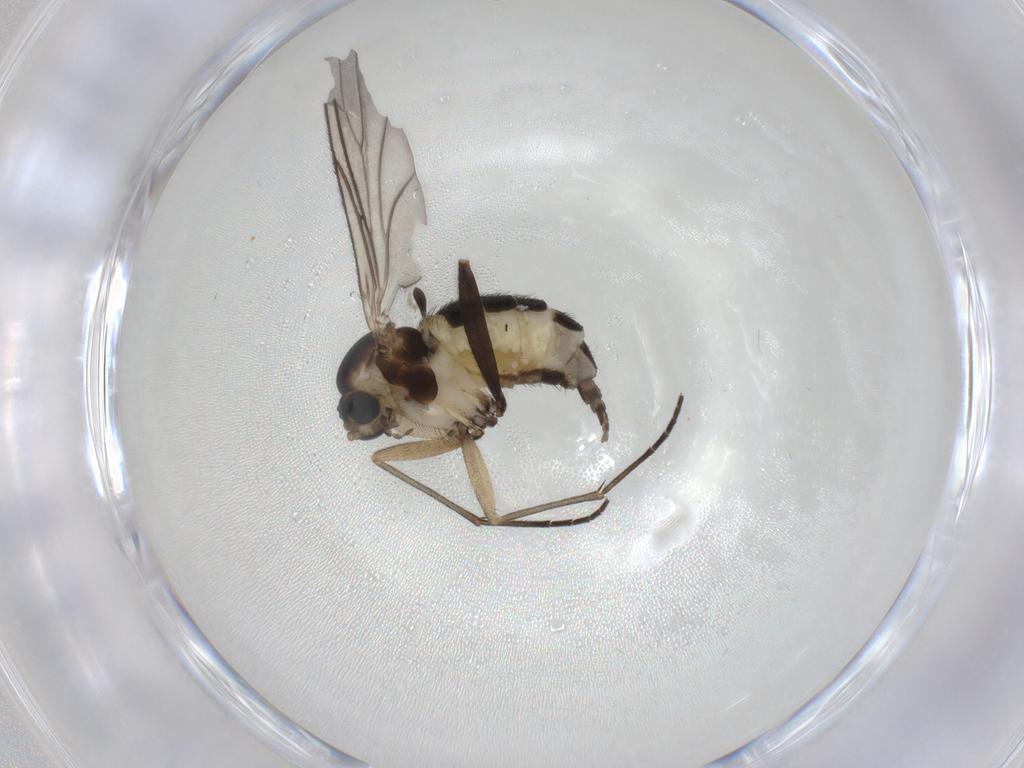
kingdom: Animalia
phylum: Arthropoda
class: Insecta
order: Diptera
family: Sciaridae
